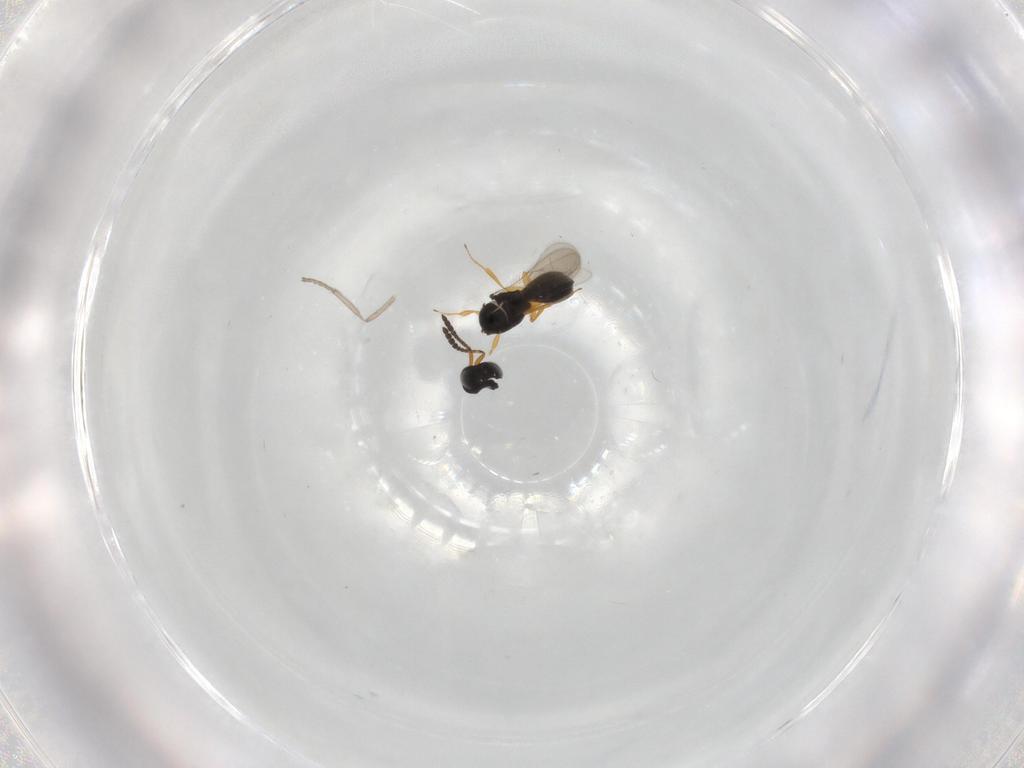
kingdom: Animalia
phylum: Arthropoda
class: Insecta
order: Hymenoptera
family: Scelionidae
